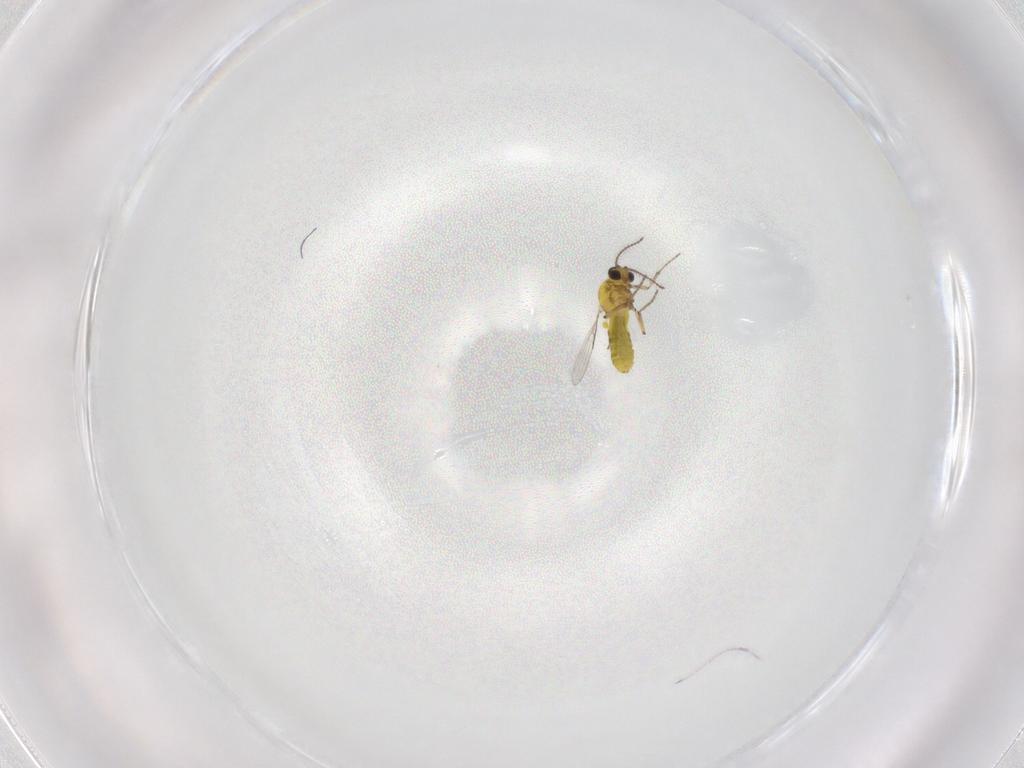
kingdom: Animalia
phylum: Arthropoda
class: Insecta
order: Diptera
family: Ceratopogonidae
